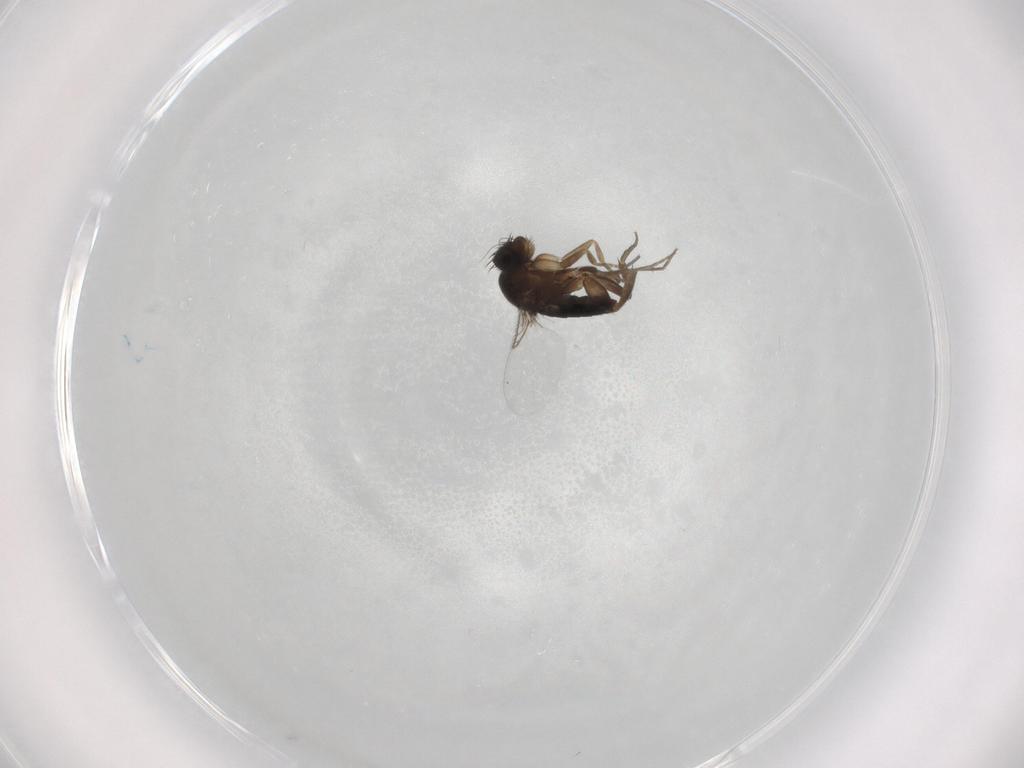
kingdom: Animalia
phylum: Arthropoda
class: Insecta
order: Diptera
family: Phoridae
